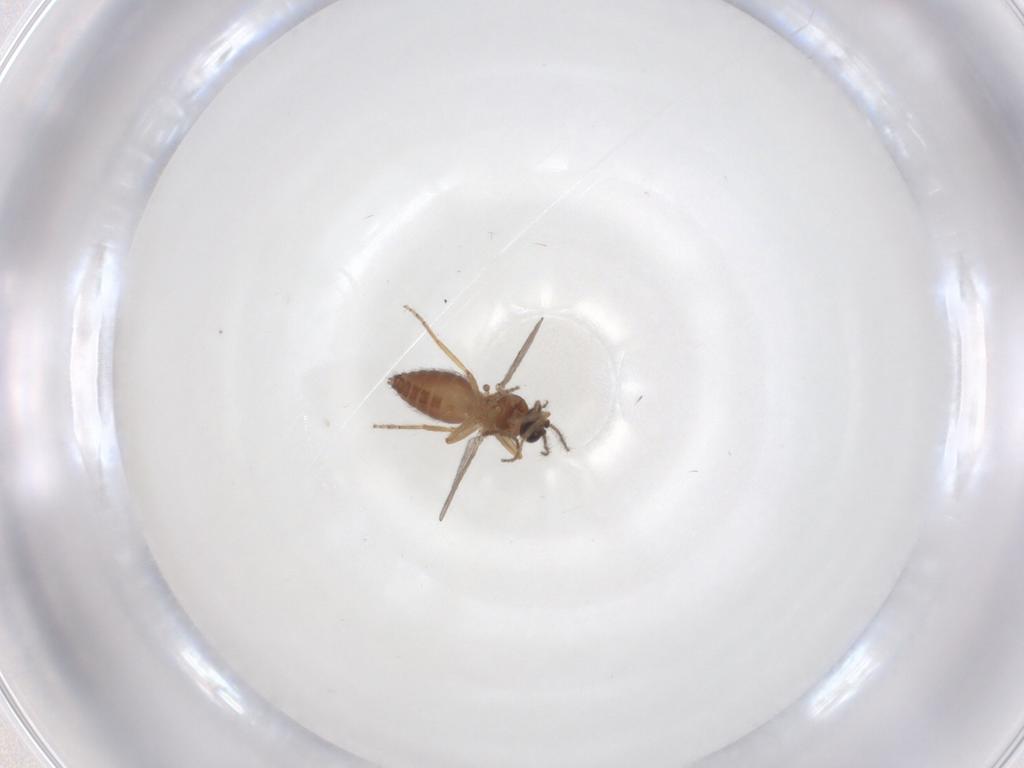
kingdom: Animalia
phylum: Arthropoda
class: Insecta
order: Diptera
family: Ceratopogonidae
